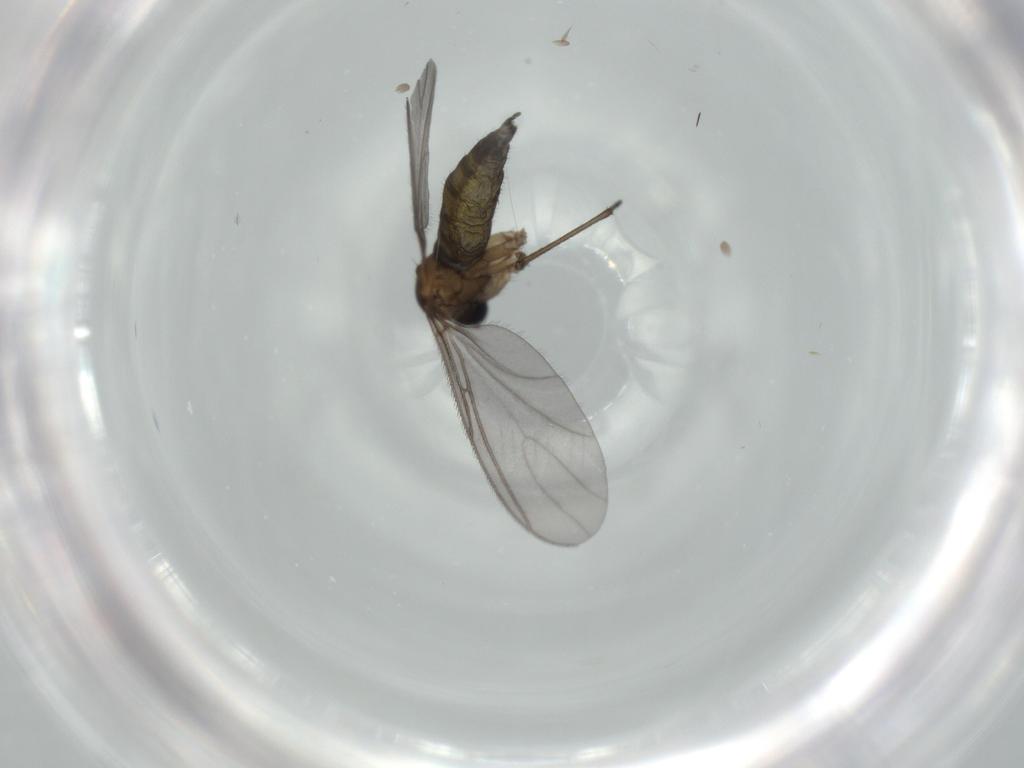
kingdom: Animalia
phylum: Arthropoda
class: Insecta
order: Diptera
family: Sciaridae
